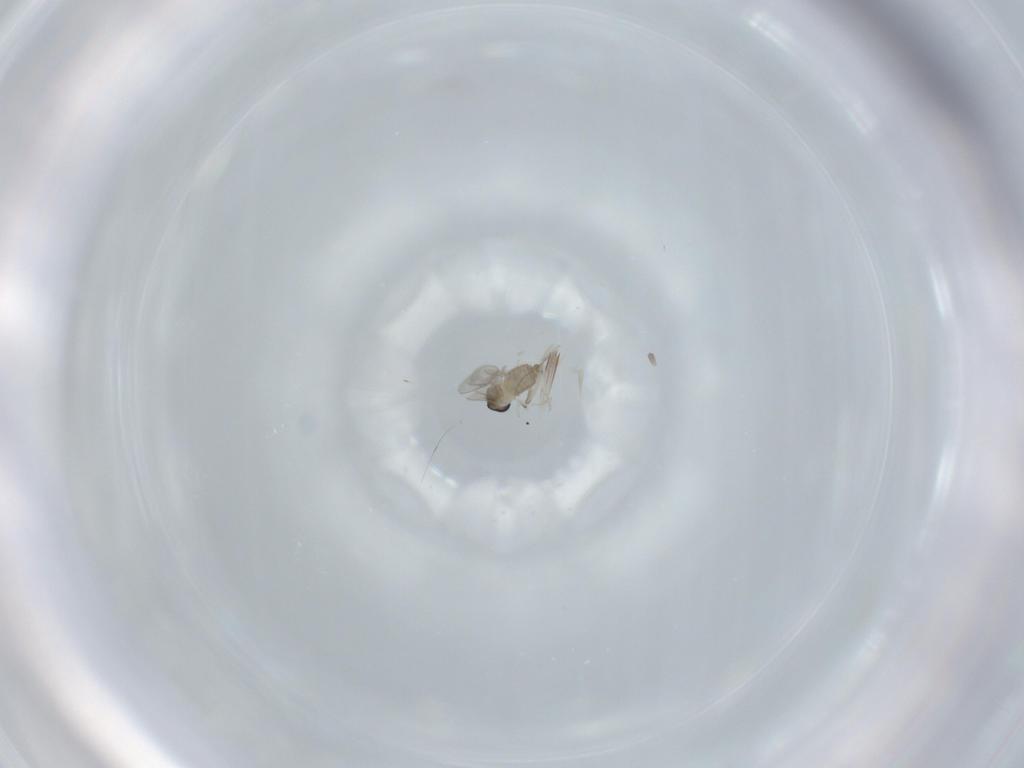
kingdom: Animalia
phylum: Arthropoda
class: Insecta
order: Diptera
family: Cecidomyiidae
